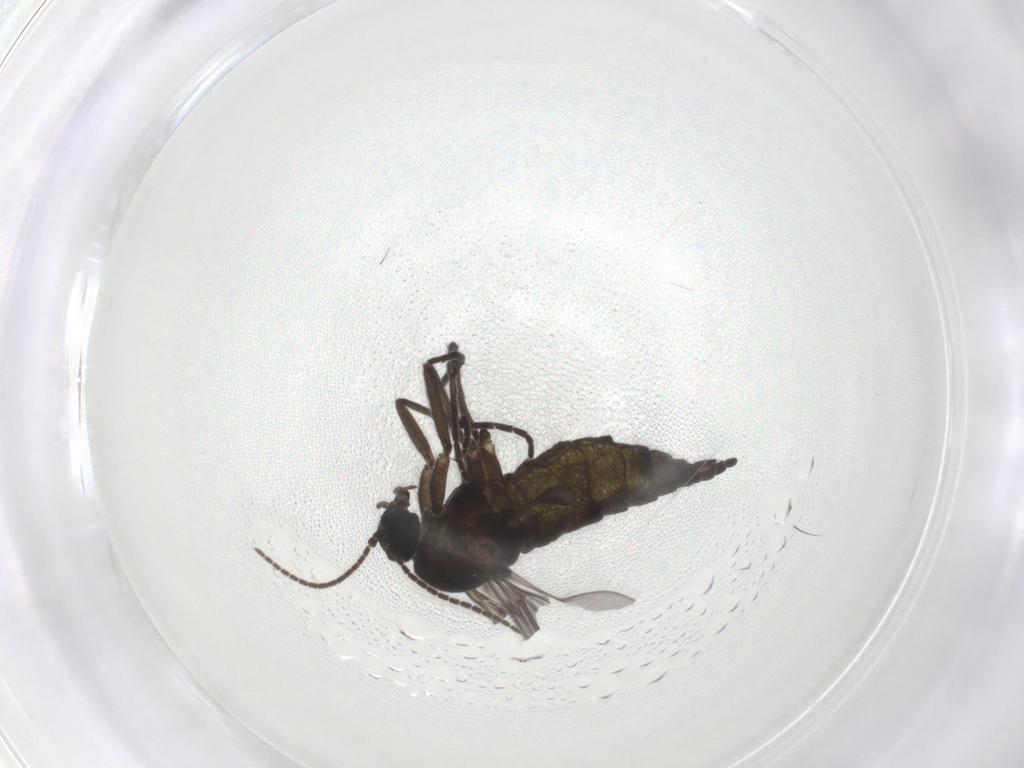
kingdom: Animalia
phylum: Arthropoda
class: Insecta
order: Diptera
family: Sciaridae
